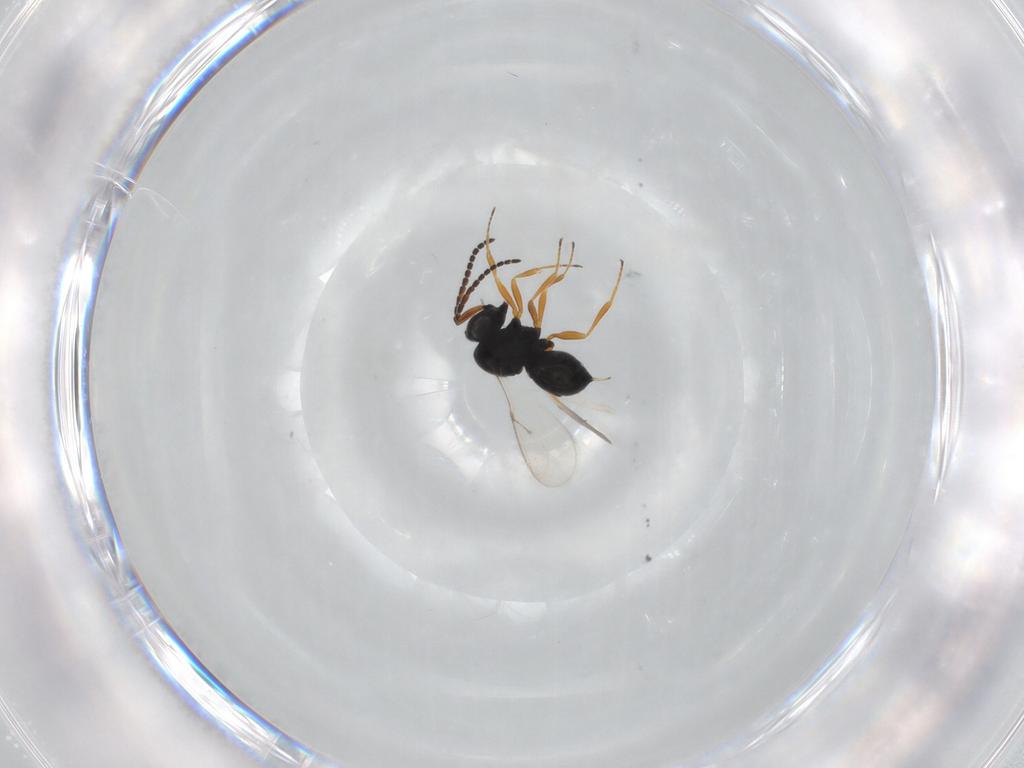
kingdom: Animalia
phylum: Arthropoda
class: Insecta
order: Hymenoptera
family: Scelionidae
